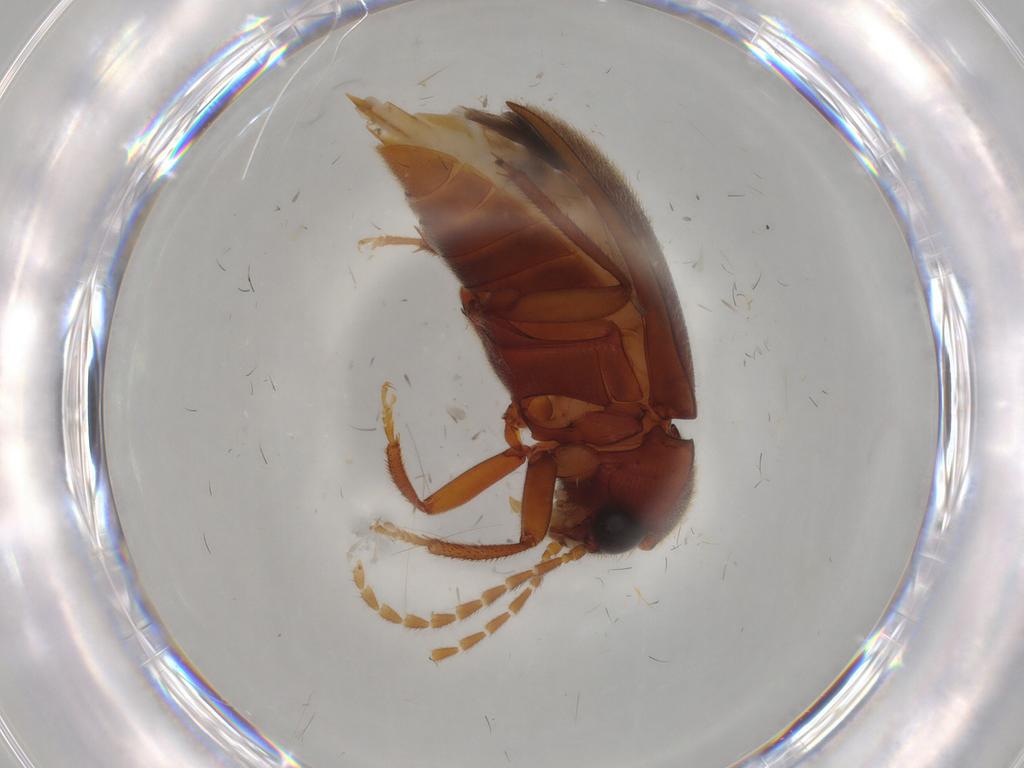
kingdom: Animalia
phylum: Arthropoda
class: Insecta
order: Coleoptera
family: Ptilodactylidae
